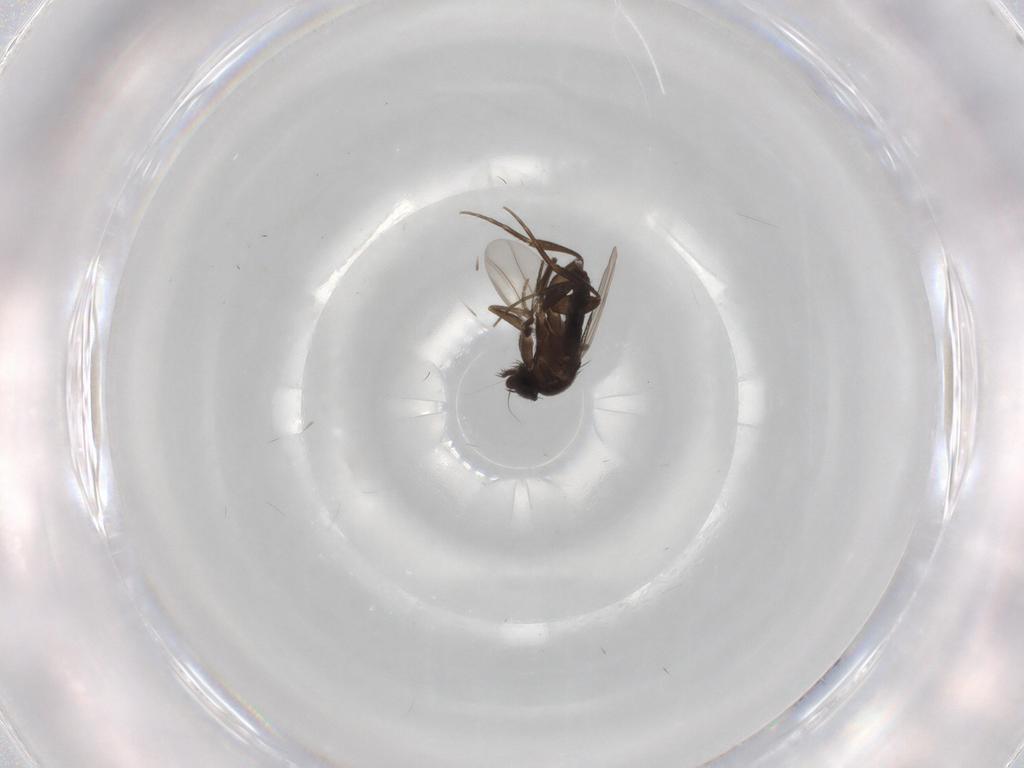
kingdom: Animalia
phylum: Arthropoda
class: Insecta
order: Diptera
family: Phoridae
